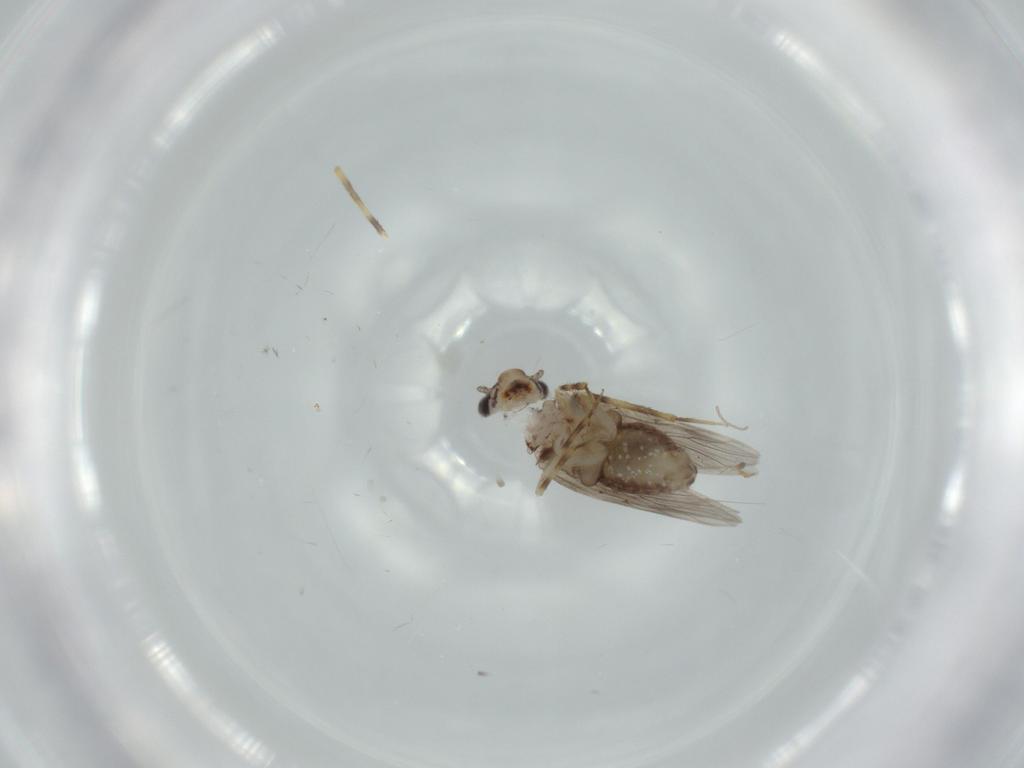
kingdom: Animalia
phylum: Arthropoda
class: Insecta
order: Psocodea
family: Lepidopsocidae
